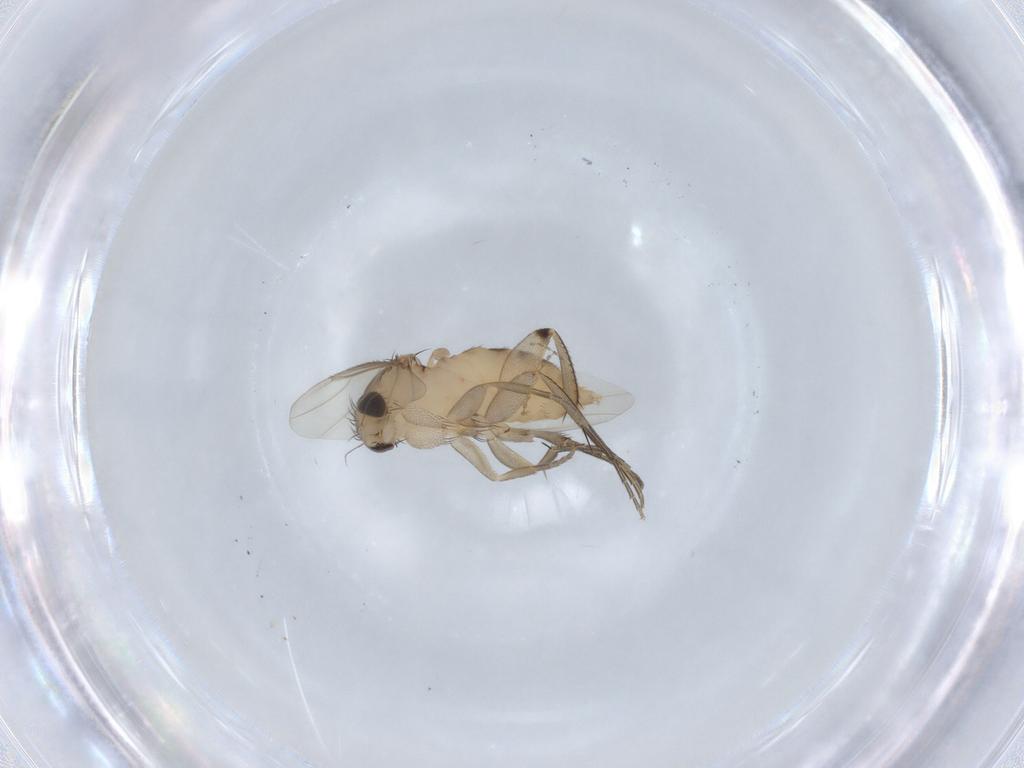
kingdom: Animalia
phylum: Arthropoda
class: Insecta
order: Diptera
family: Phoridae
